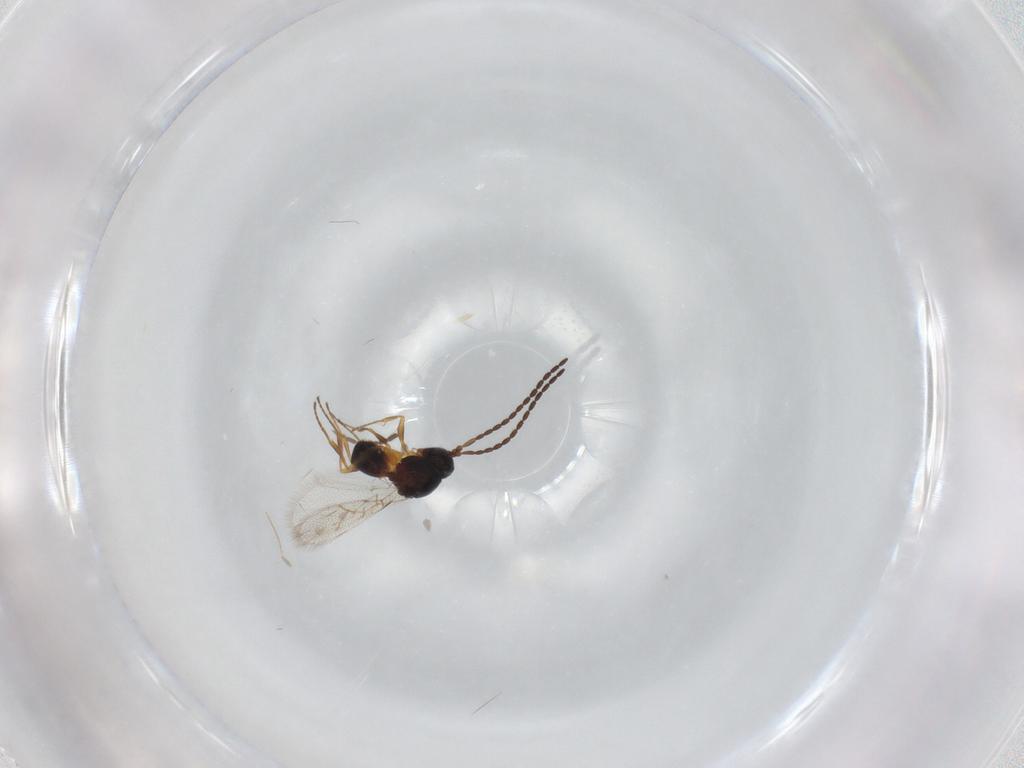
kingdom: Animalia
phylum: Arthropoda
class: Insecta
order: Hymenoptera
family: Figitidae
